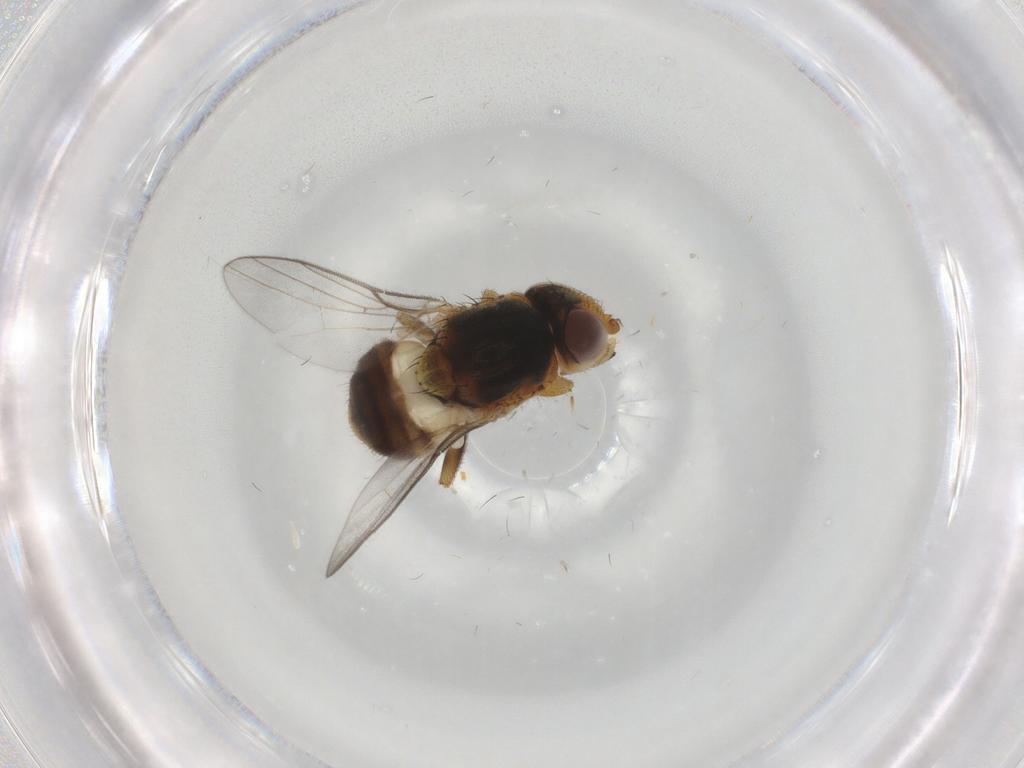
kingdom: Animalia
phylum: Arthropoda
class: Insecta
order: Diptera
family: Chloropidae
